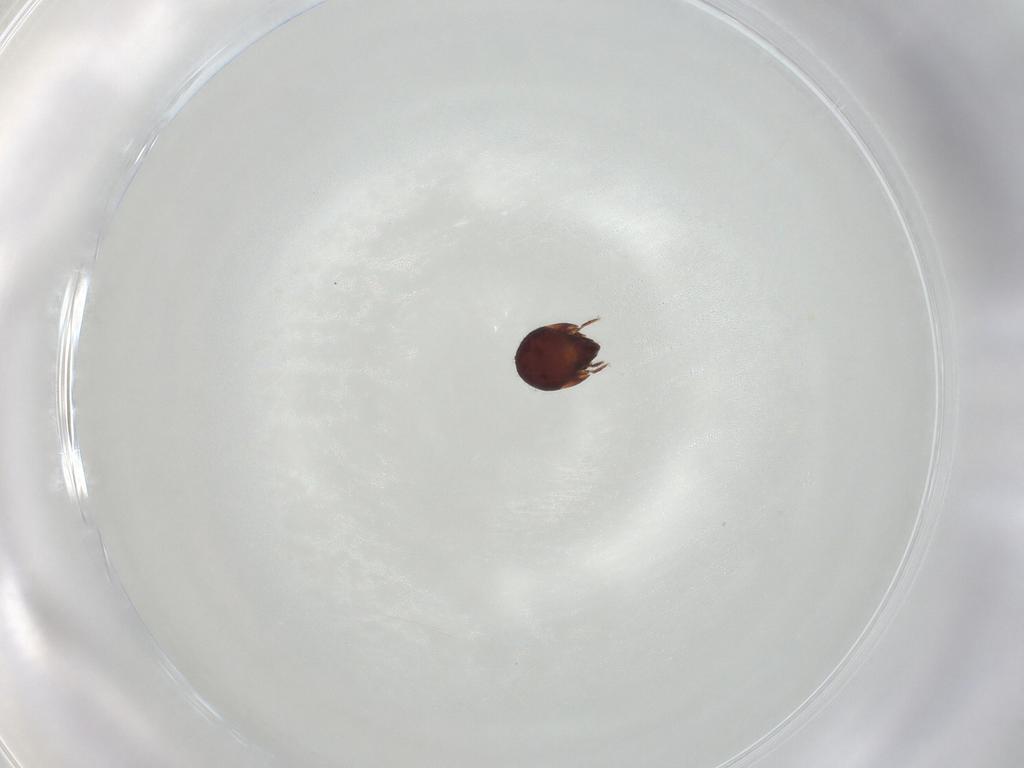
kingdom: Animalia
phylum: Arthropoda
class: Arachnida
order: Sarcoptiformes
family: Humerobatidae
